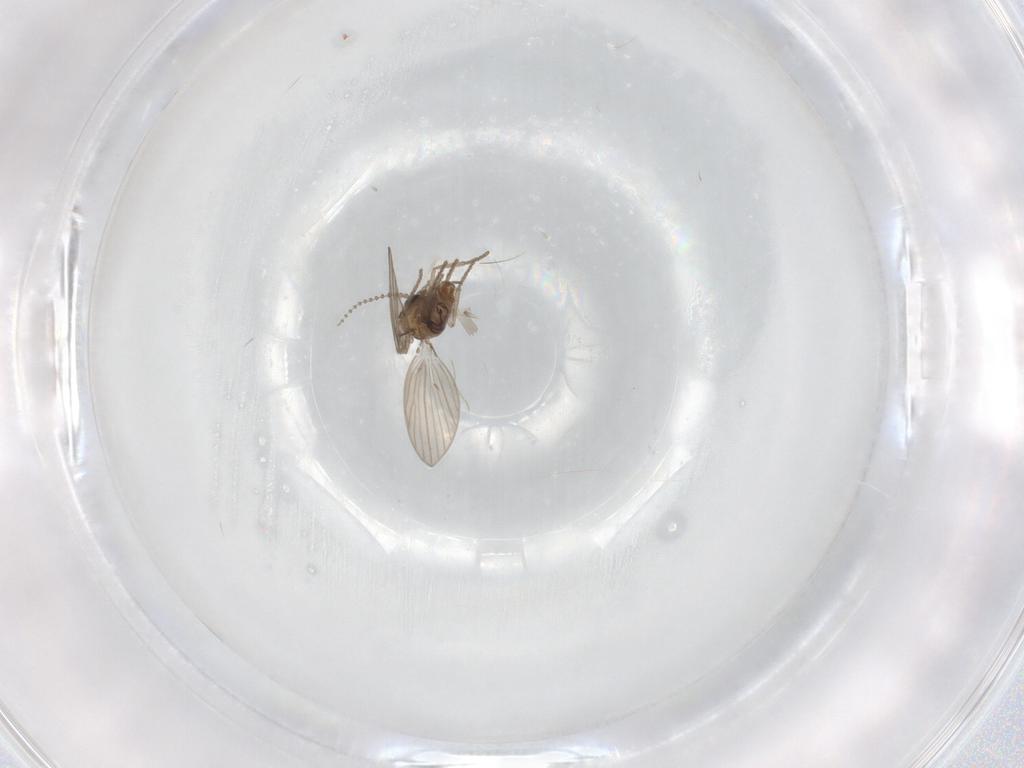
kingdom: Animalia
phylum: Arthropoda
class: Insecta
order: Diptera
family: Psychodidae
